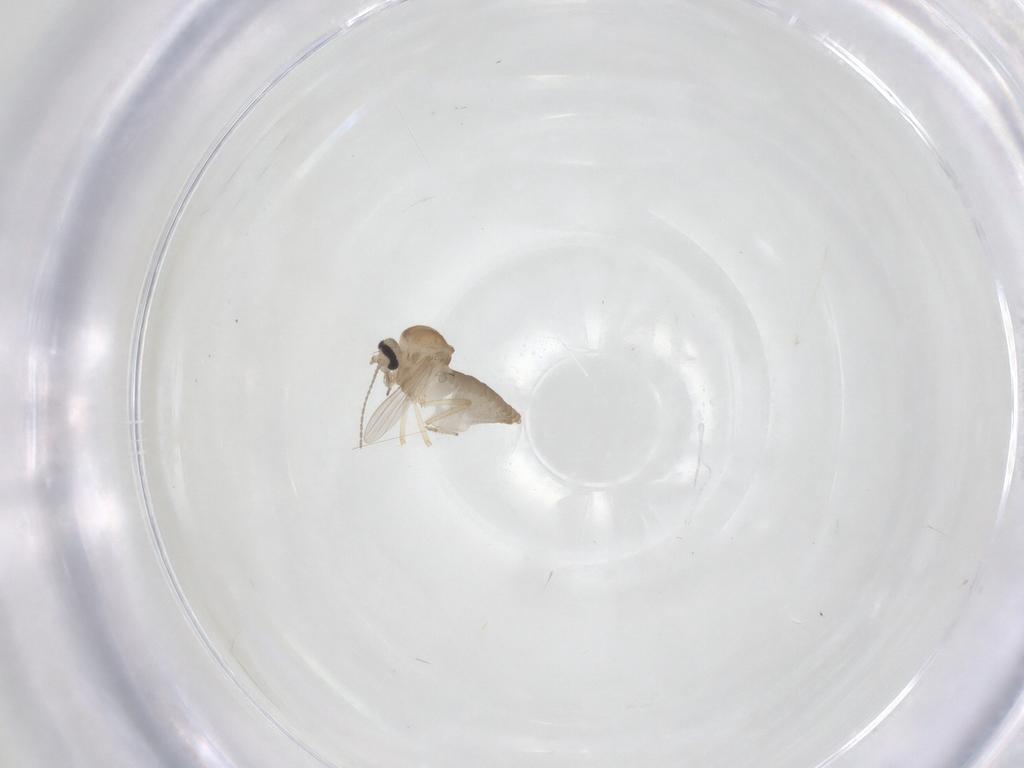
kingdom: Animalia
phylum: Arthropoda
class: Insecta
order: Diptera
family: Ceratopogonidae
